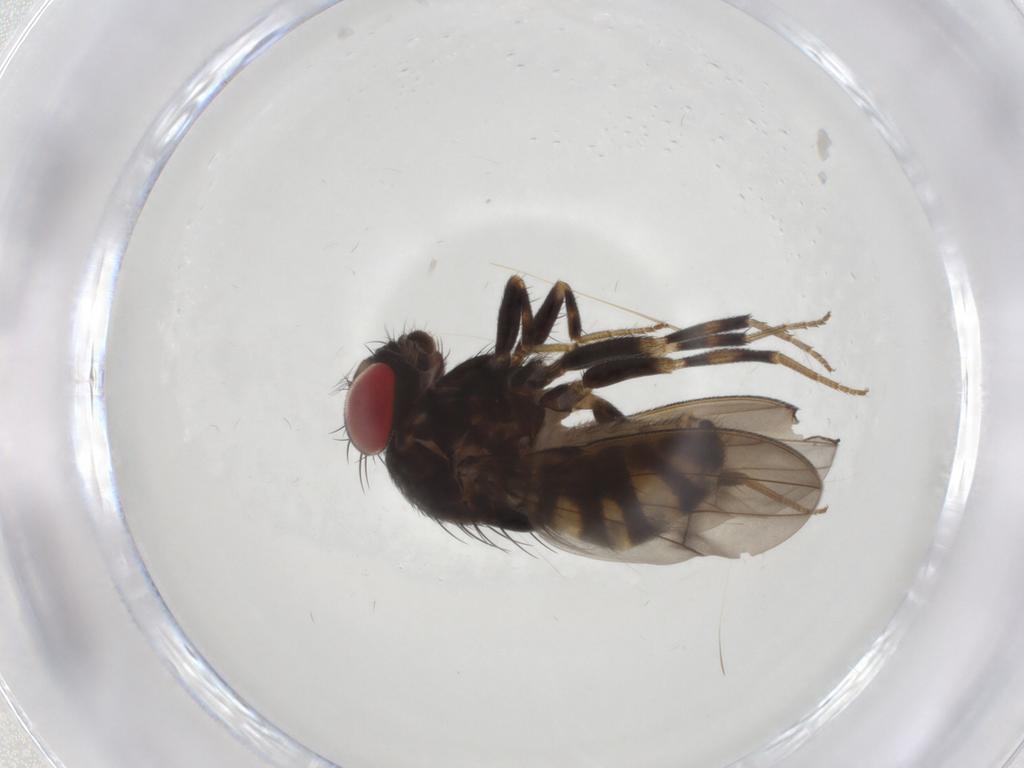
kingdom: Animalia
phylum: Arthropoda
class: Insecta
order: Diptera
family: Drosophilidae
